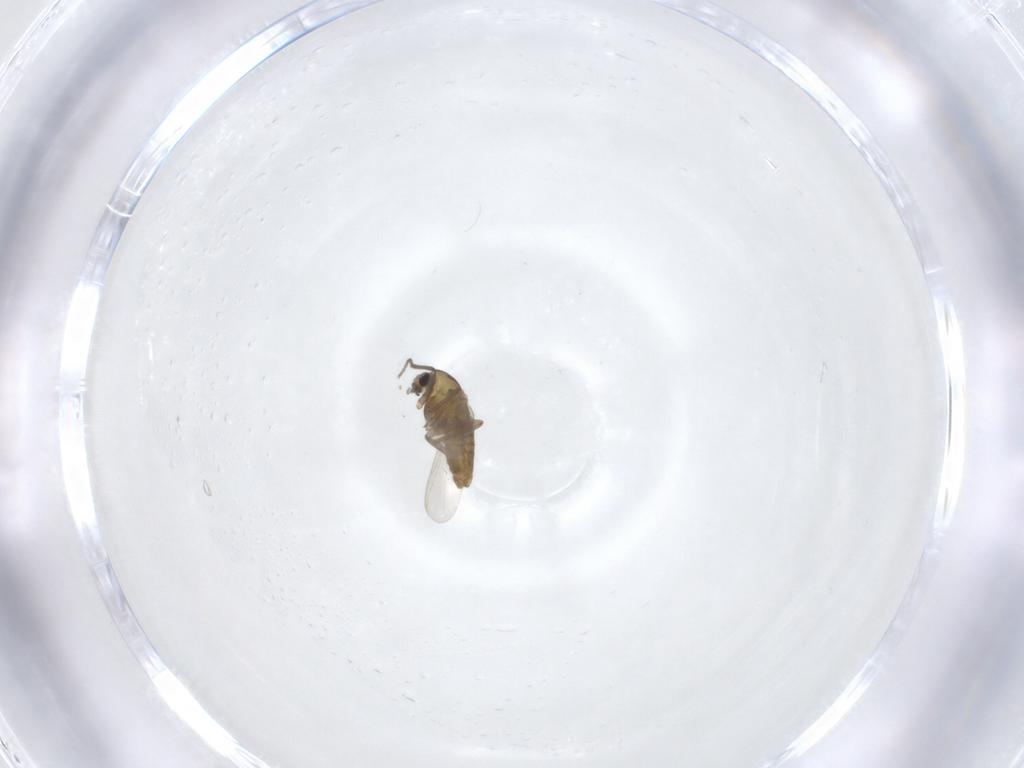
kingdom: Animalia
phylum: Arthropoda
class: Insecta
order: Diptera
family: Chironomidae
